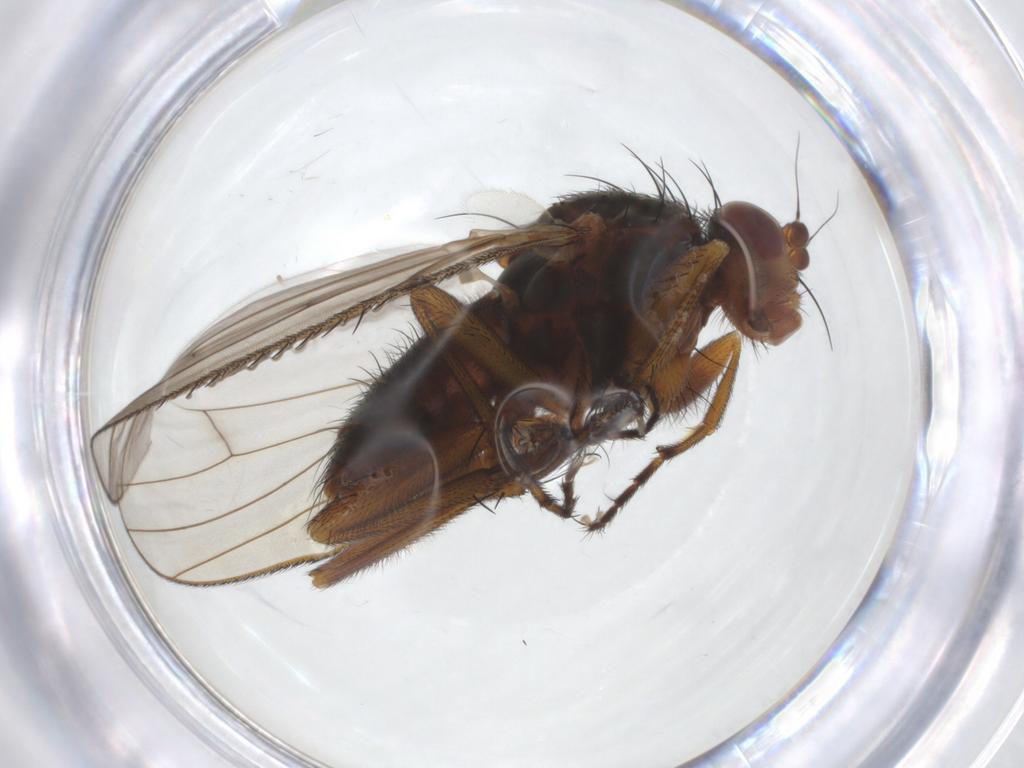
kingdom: Animalia
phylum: Arthropoda
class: Insecta
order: Diptera
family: Heleomyzidae
